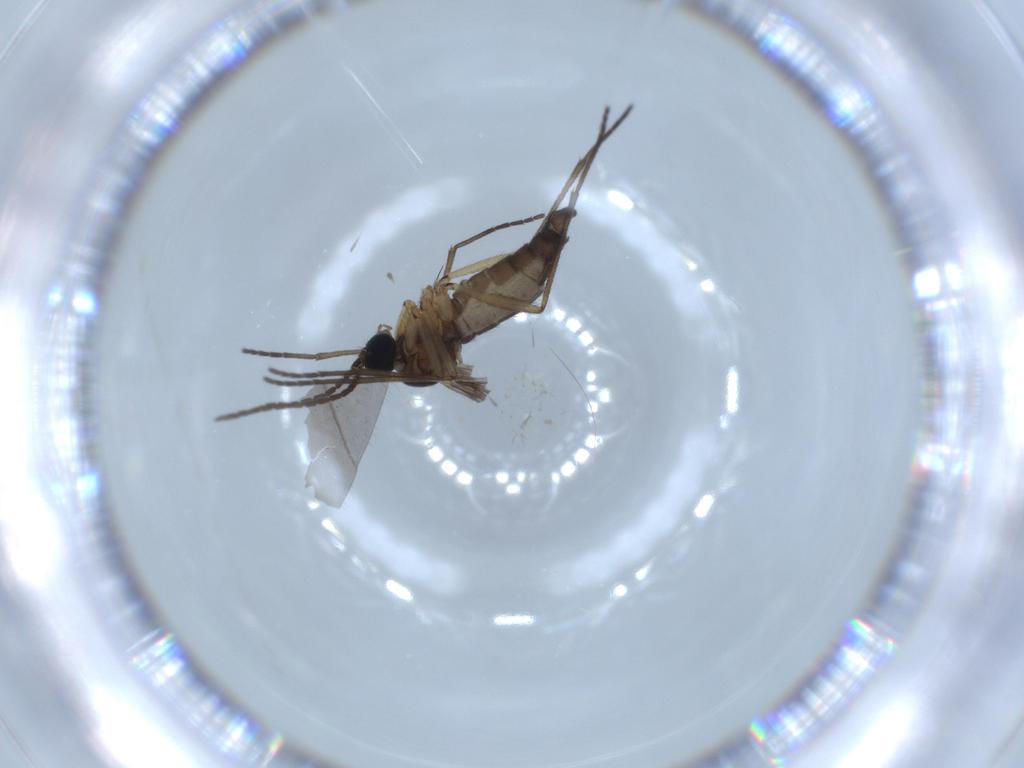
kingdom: Animalia
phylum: Arthropoda
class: Insecta
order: Diptera
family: Sciaridae
